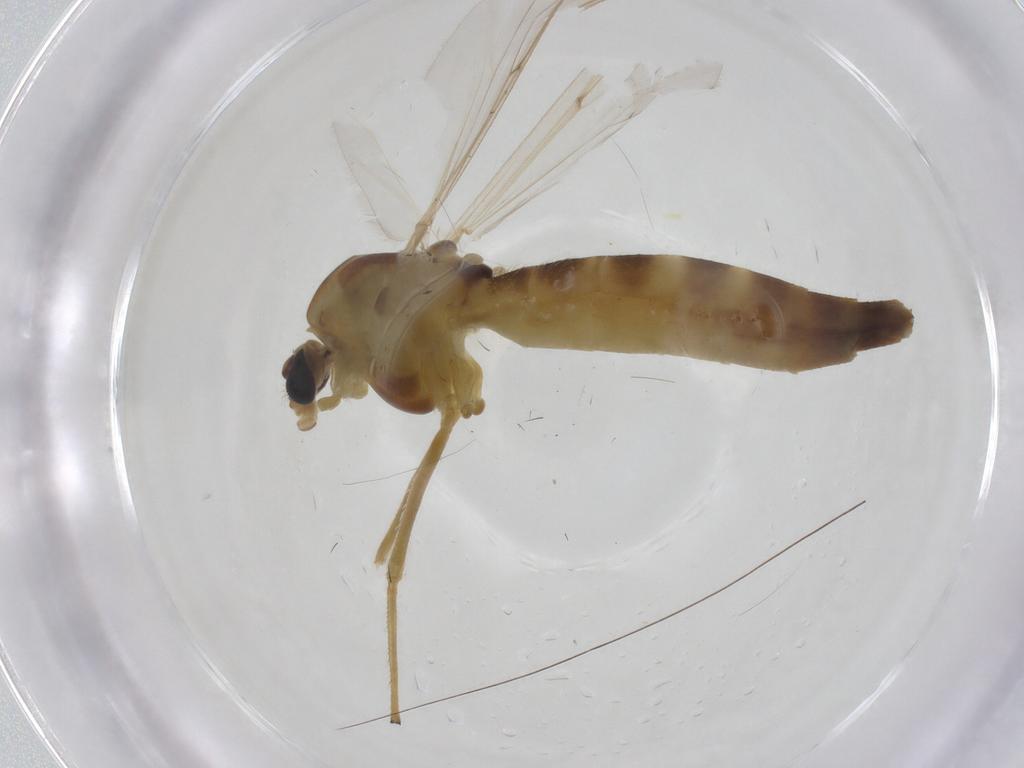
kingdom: Animalia
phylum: Arthropoda
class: Insecta
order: Diptera
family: Chironomidae
